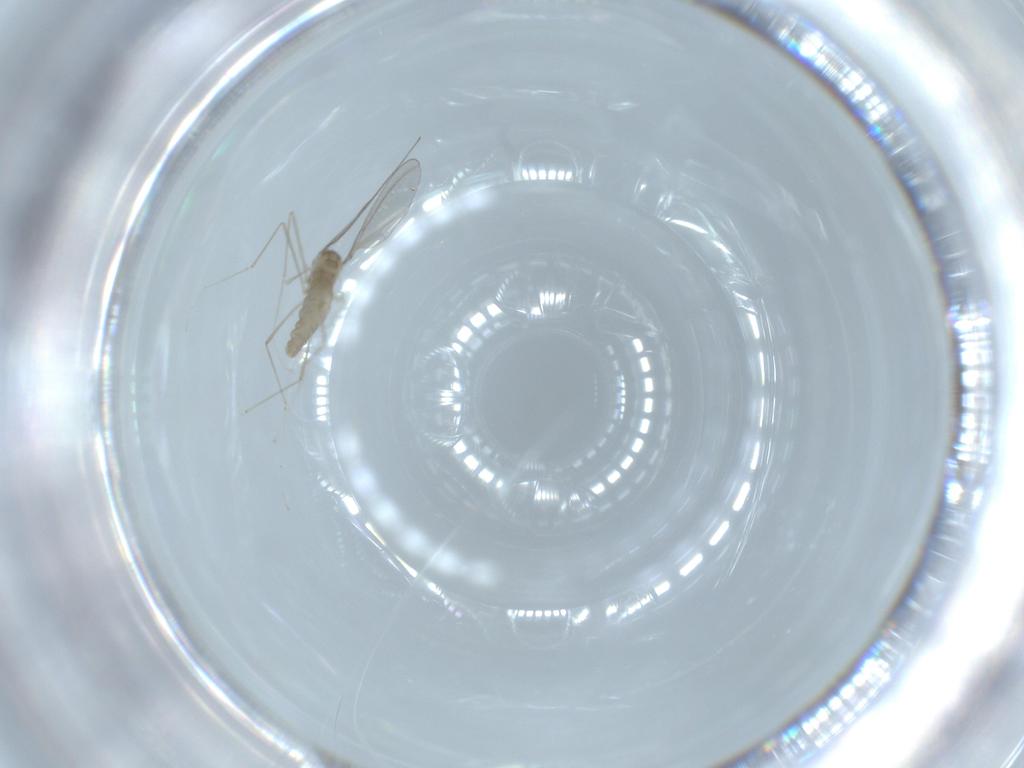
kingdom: Animalia
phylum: Arthropoda
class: Insecta
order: Diptera
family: Cecidomyiidae
